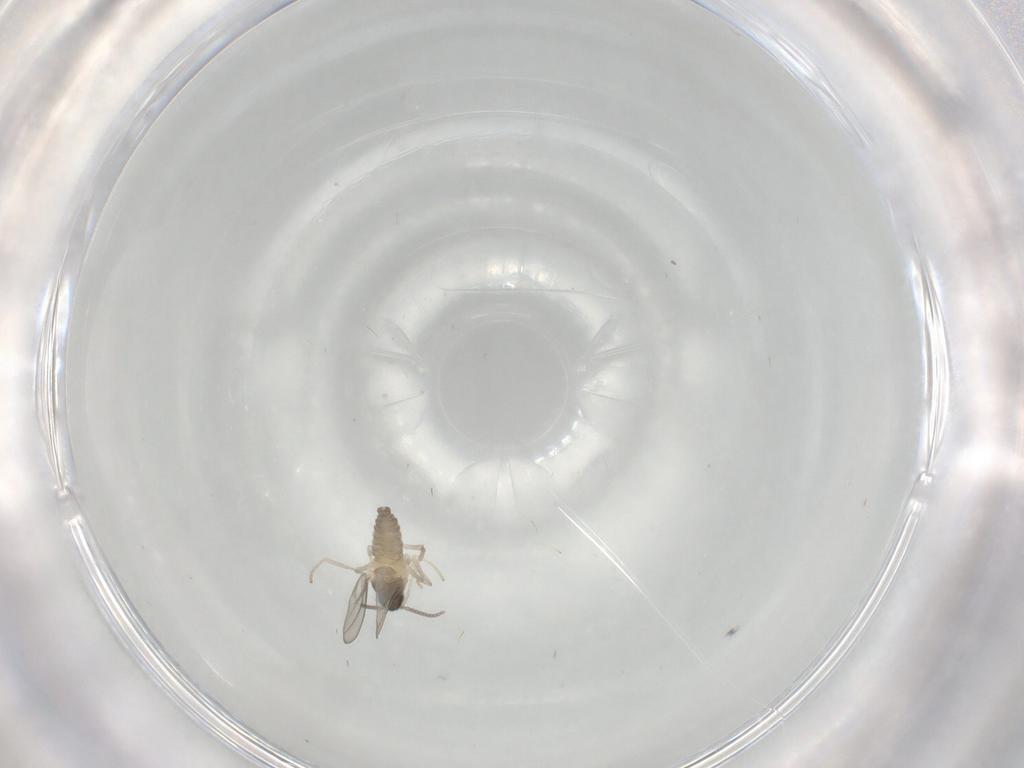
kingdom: Animalia
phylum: Arthropoda
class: Insecta
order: Diptera
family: Cecidomyiidae
